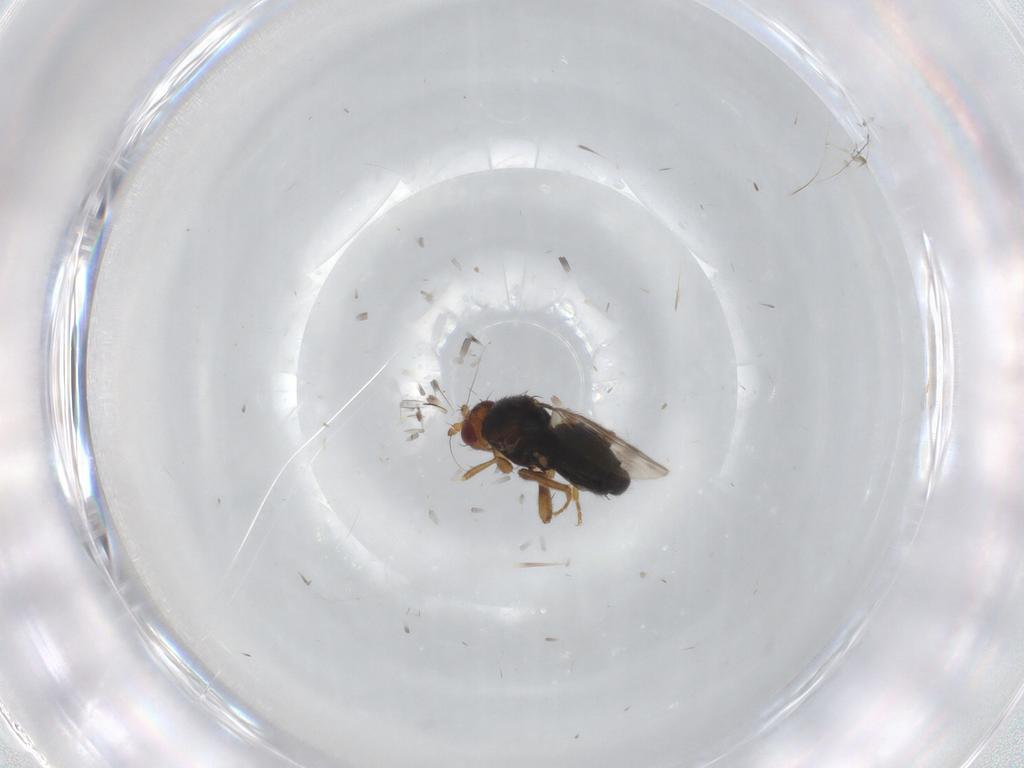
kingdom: Animalia
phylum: Arthropoda
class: Insecta
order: Diptera
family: Sphaeroceridae
